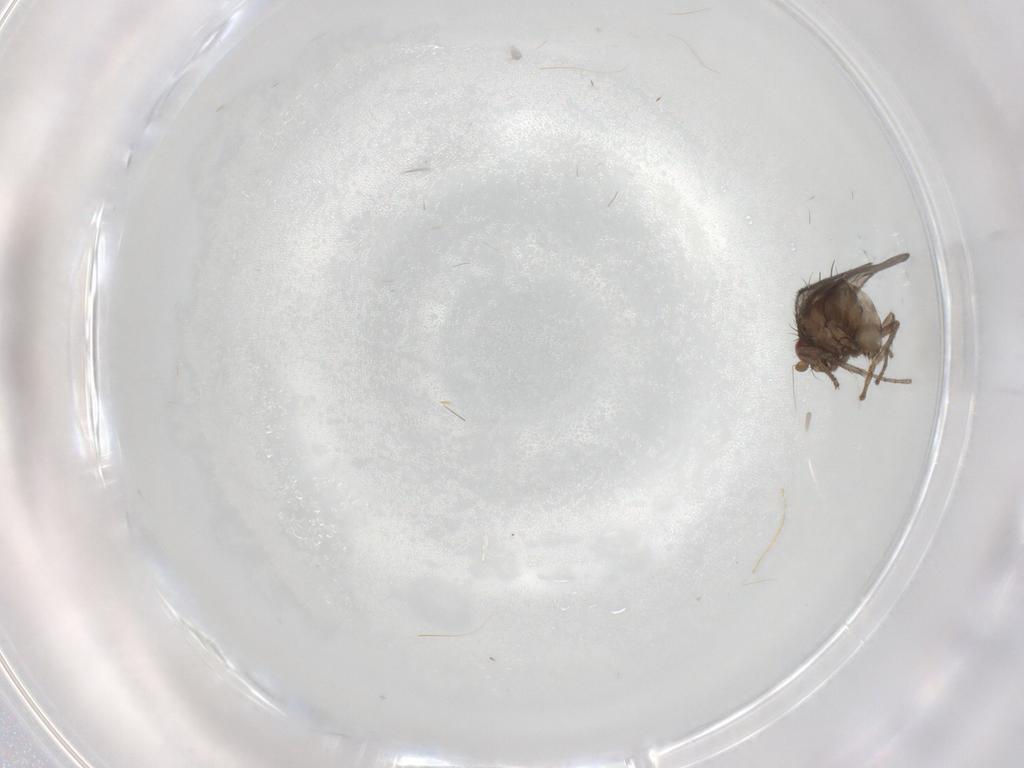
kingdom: Animalia
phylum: Arthropoda
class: Insecta
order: Diptera
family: Sphaeroceridae
